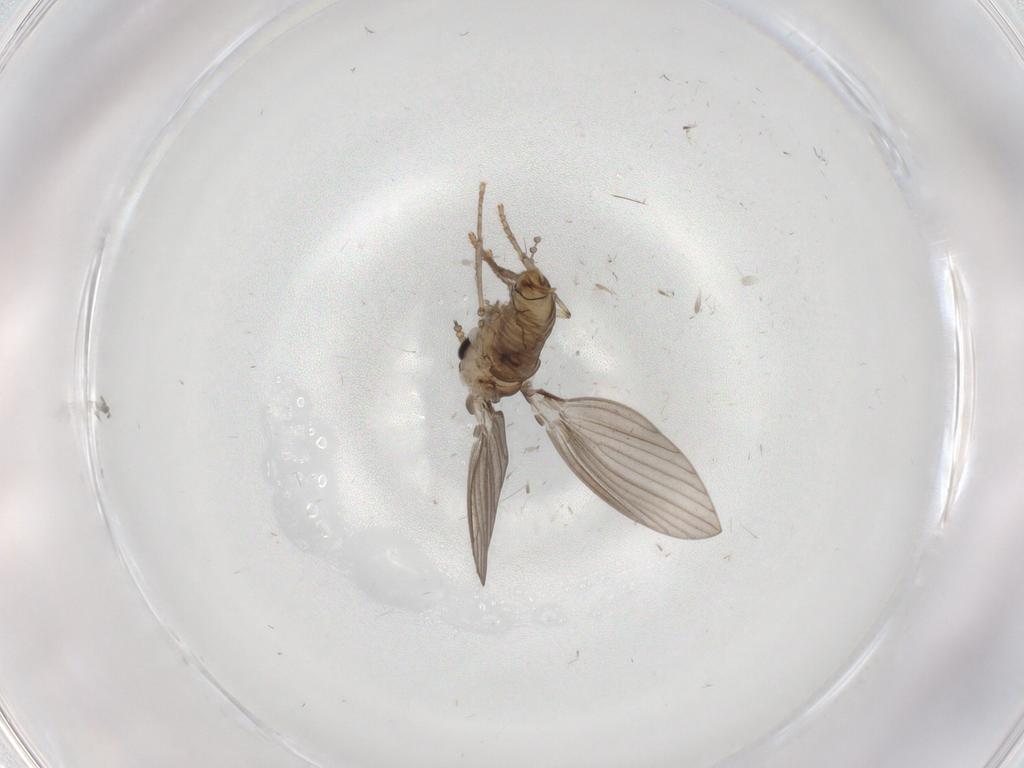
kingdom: Animalia
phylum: Arthropoda
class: Insecta
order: Diptera
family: Psychodidae
